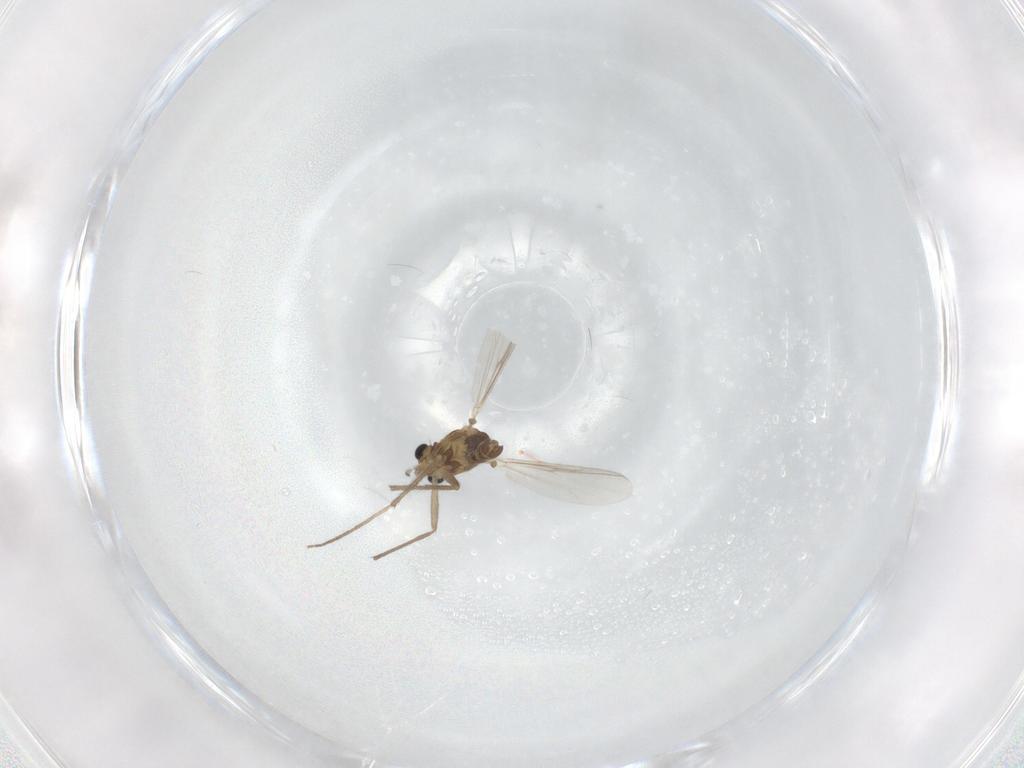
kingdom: Animalia
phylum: Arthropoda
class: Insecta
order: Diptera
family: Chironomidae
